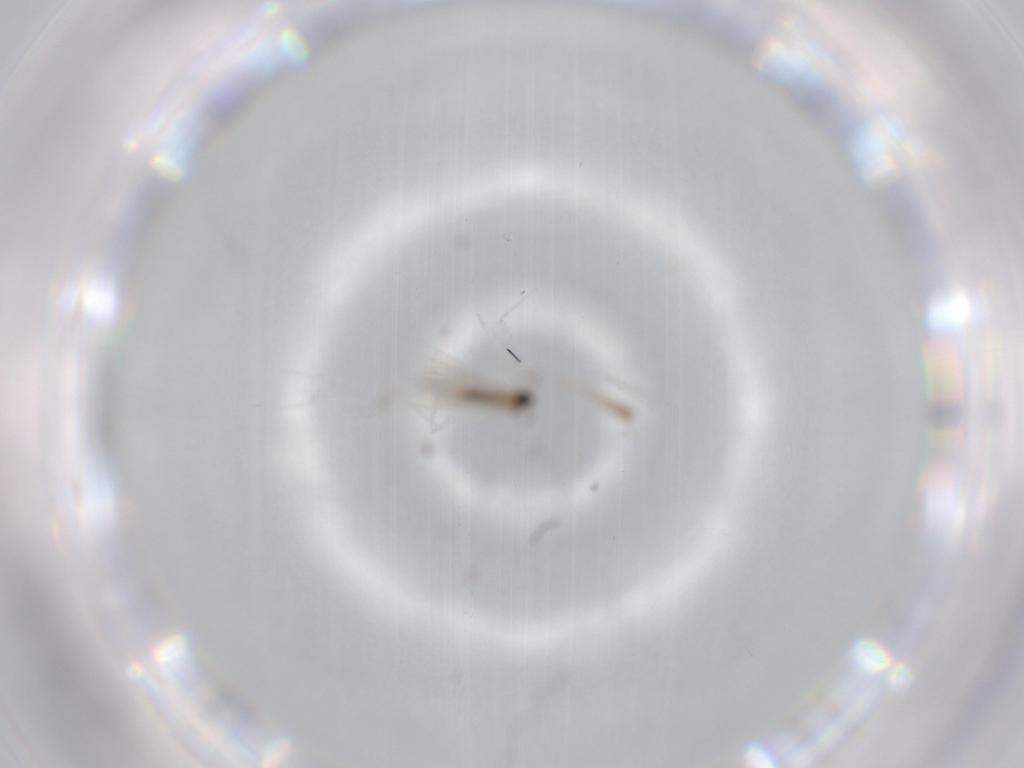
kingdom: Animalia
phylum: Arthropoda
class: Insecta
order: Diptera
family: Cecidomyiidae
